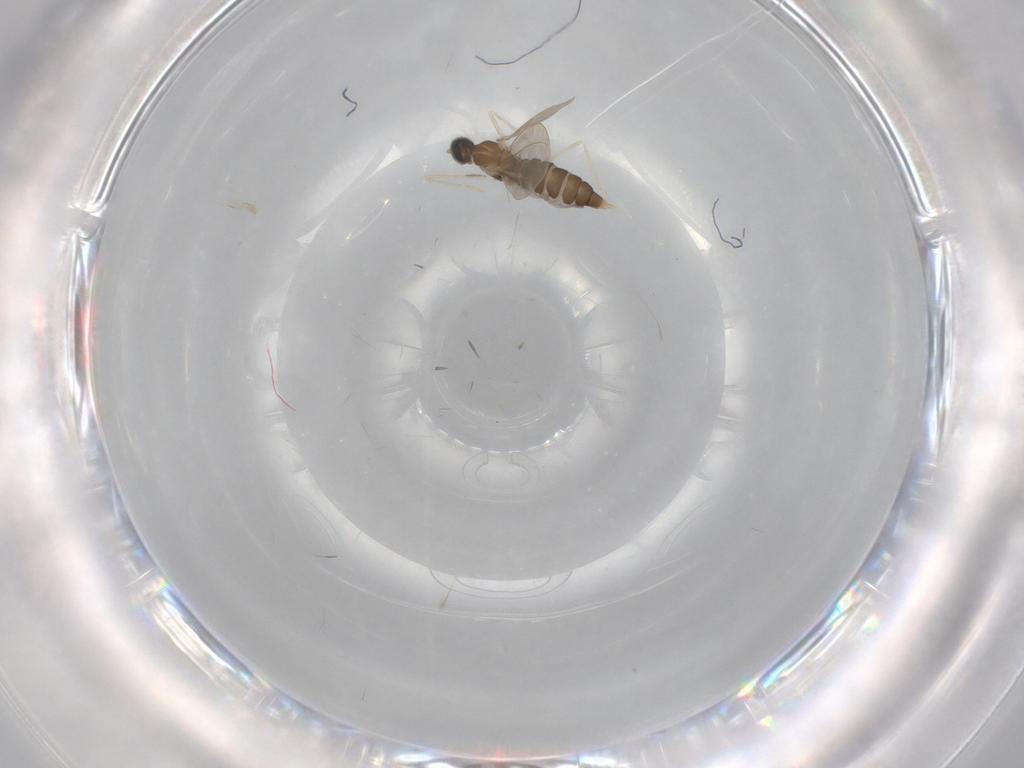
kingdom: Animalia
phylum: Arthropoda
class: Insecta
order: Diptera
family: Cecidomyiidae
